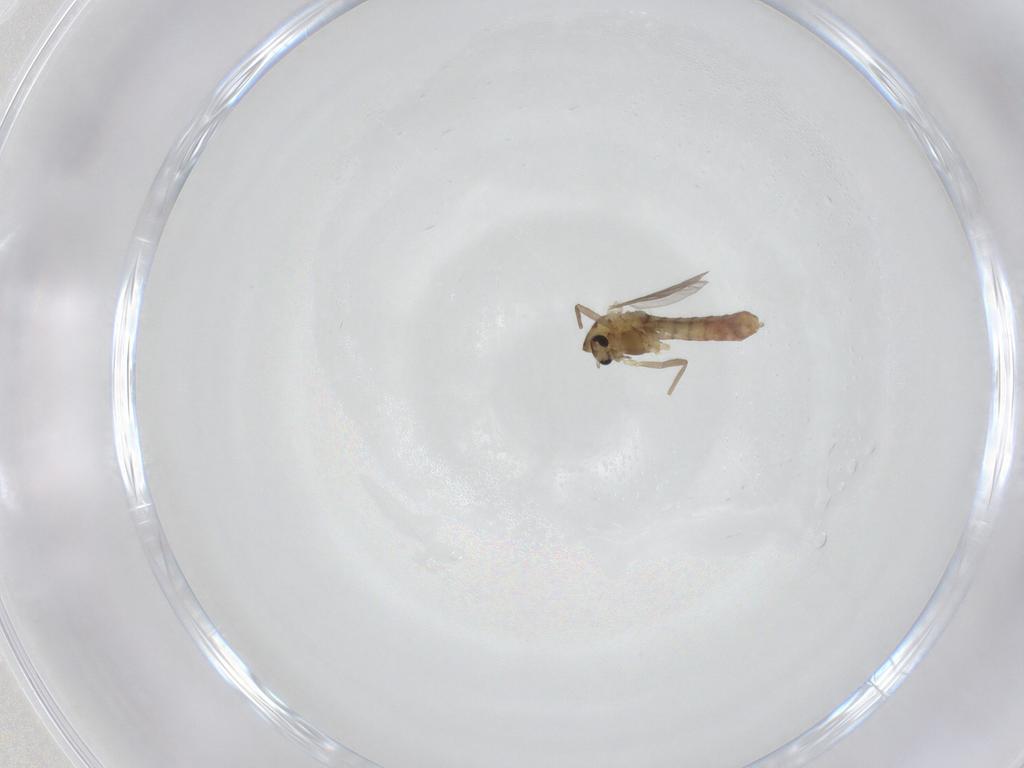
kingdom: Animalia
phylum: Arthropoda
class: Insecta
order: Diptera
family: Chironomidae
